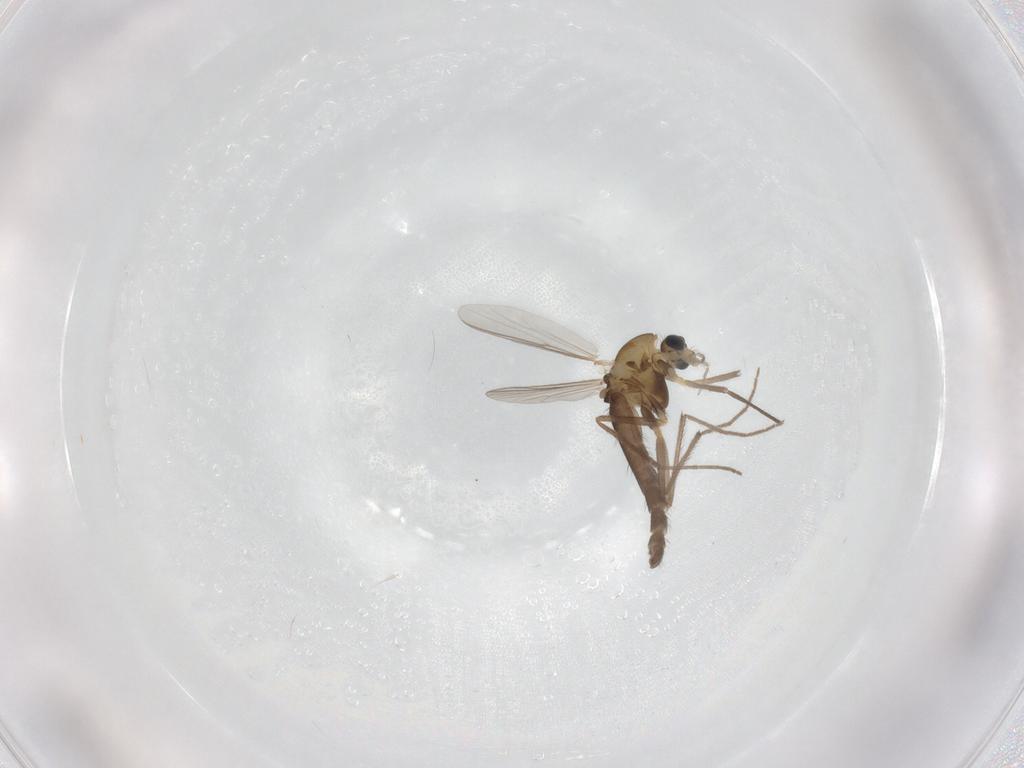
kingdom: Animalia
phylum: Arthropoda
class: Insecta
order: Diptera
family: Chironomidae
